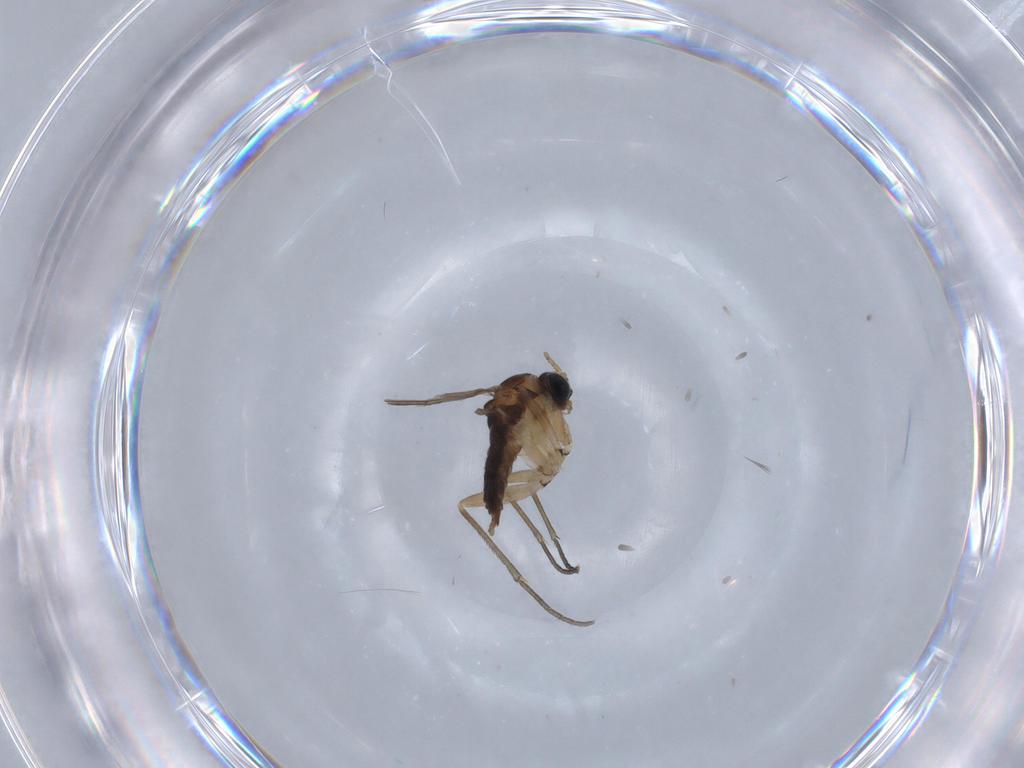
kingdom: Animalia
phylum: Arthropoda
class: Insecta
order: Diptera
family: Sciaridae
